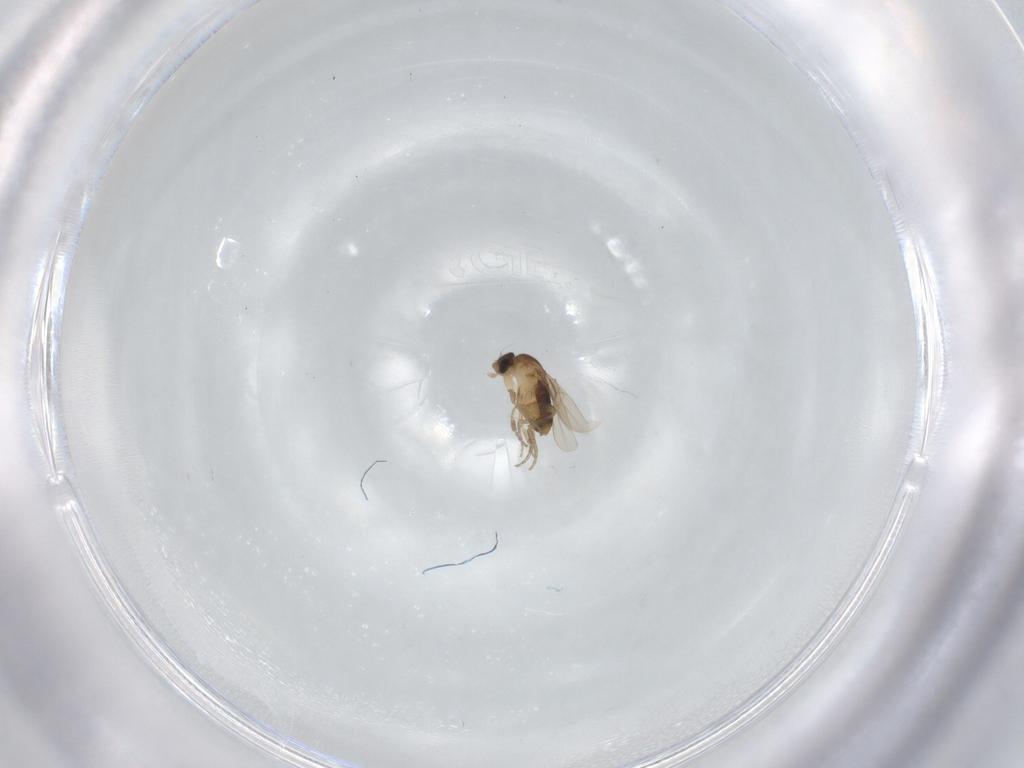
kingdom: Animalia
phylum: Arthropoda
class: Insecta
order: Diptera
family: Phoridae
